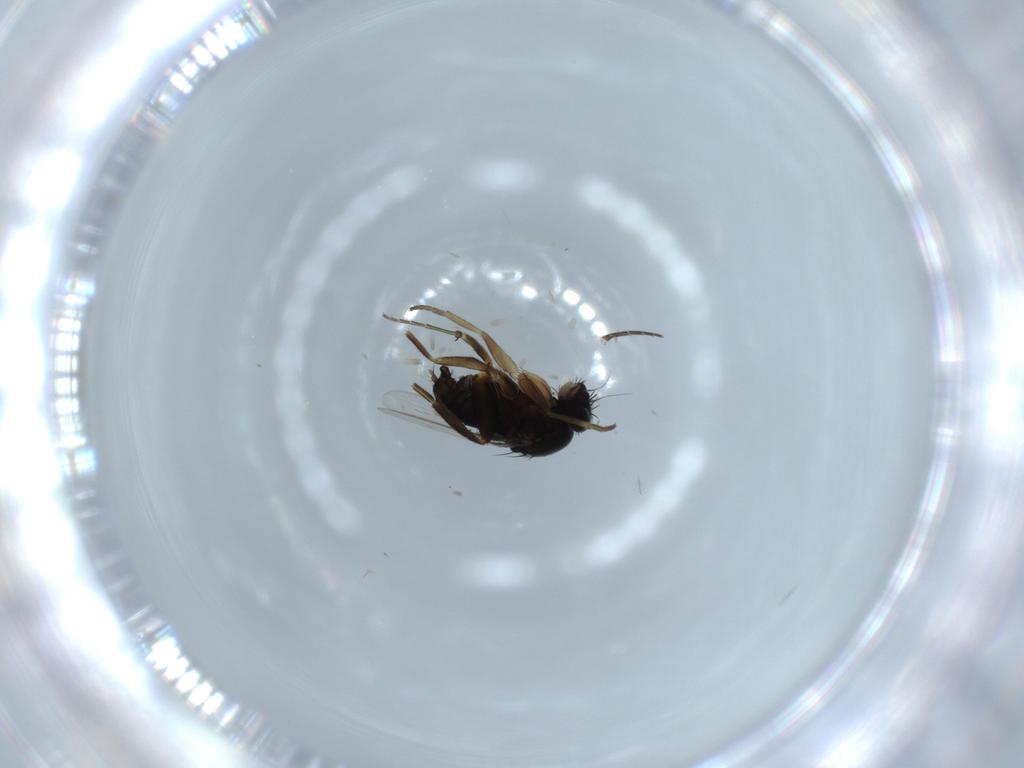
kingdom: Animalia
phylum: Arthropoda
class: Insecta
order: Diptera
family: Phoridae
